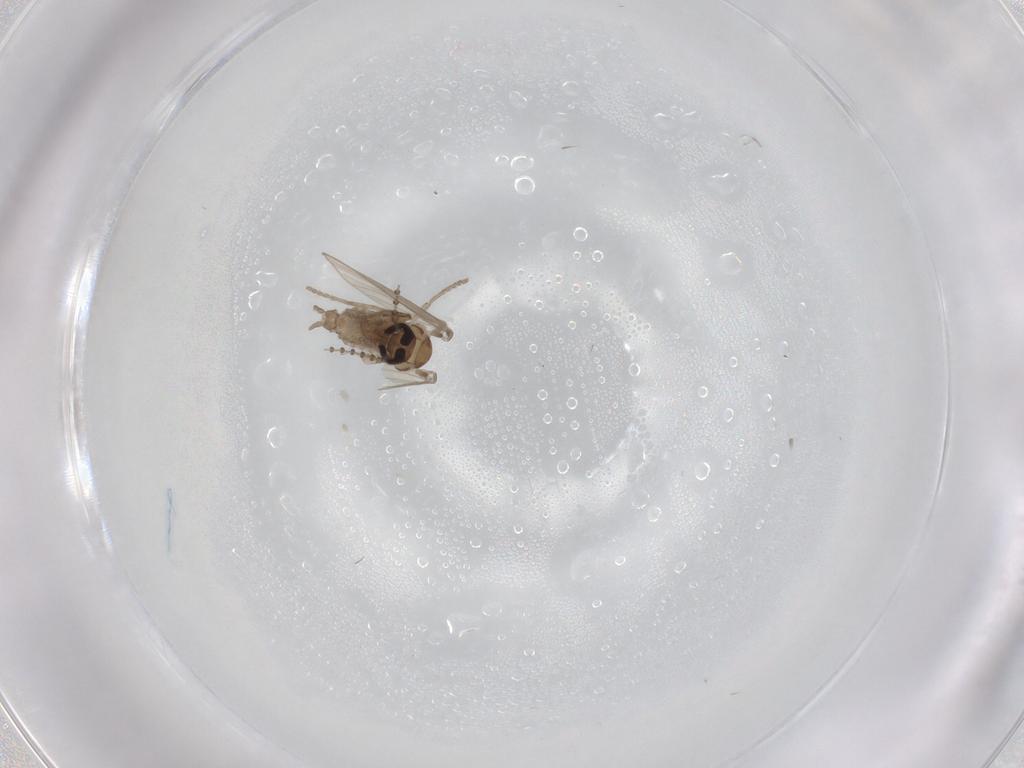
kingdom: Animalia
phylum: Arthropoda
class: Insecta
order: Diptera
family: Psychodidae
